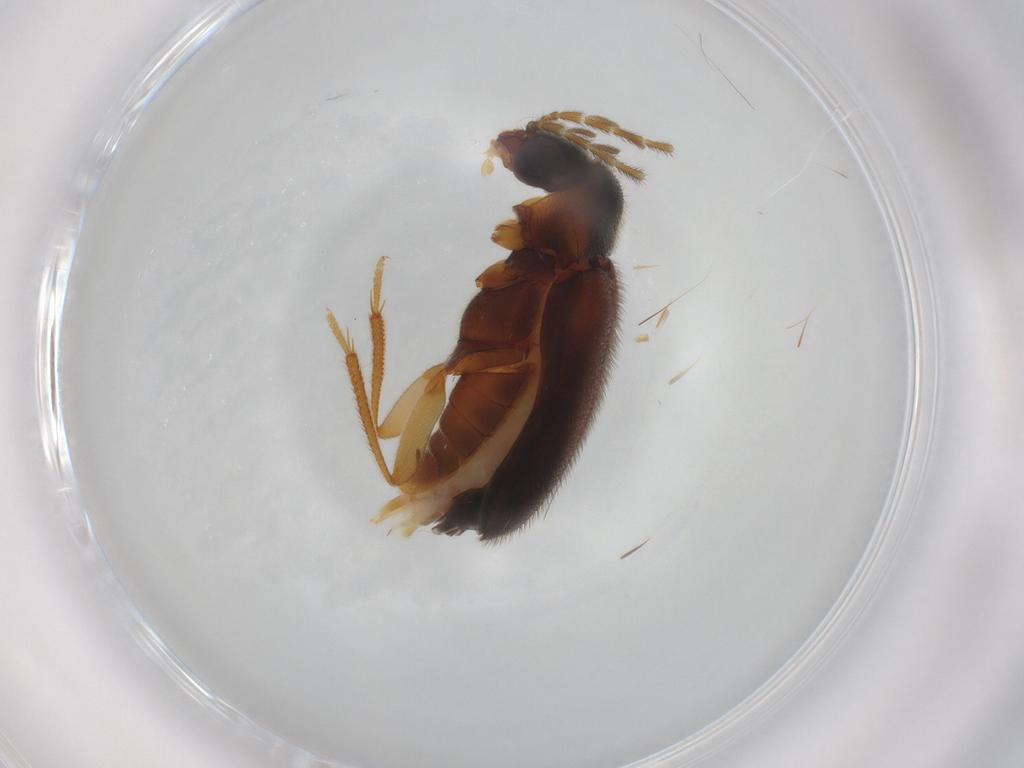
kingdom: Animalia
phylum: Arthropoda
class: Insecta
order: Coleoptera
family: Ptilodactylidae
